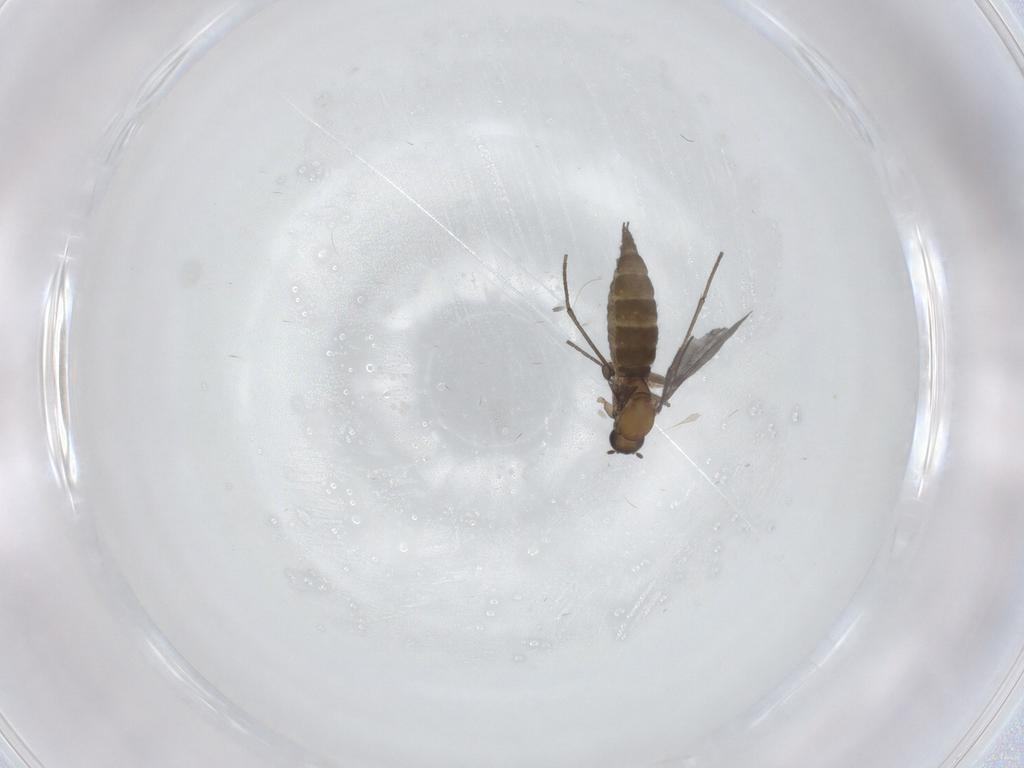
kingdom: Animalia
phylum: Arthropoda
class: Insecta
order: Diptera
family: Sciaridae
